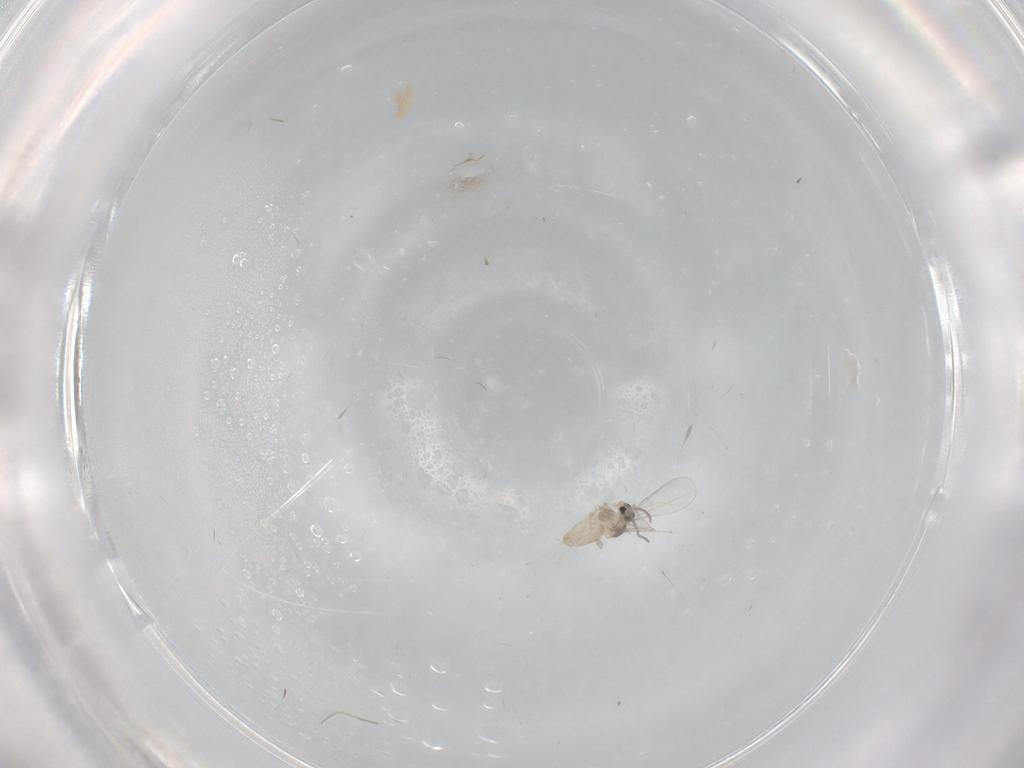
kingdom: Animalia
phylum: Arthropoda
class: Insecta
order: Diptera
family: Cecidomyiidae
